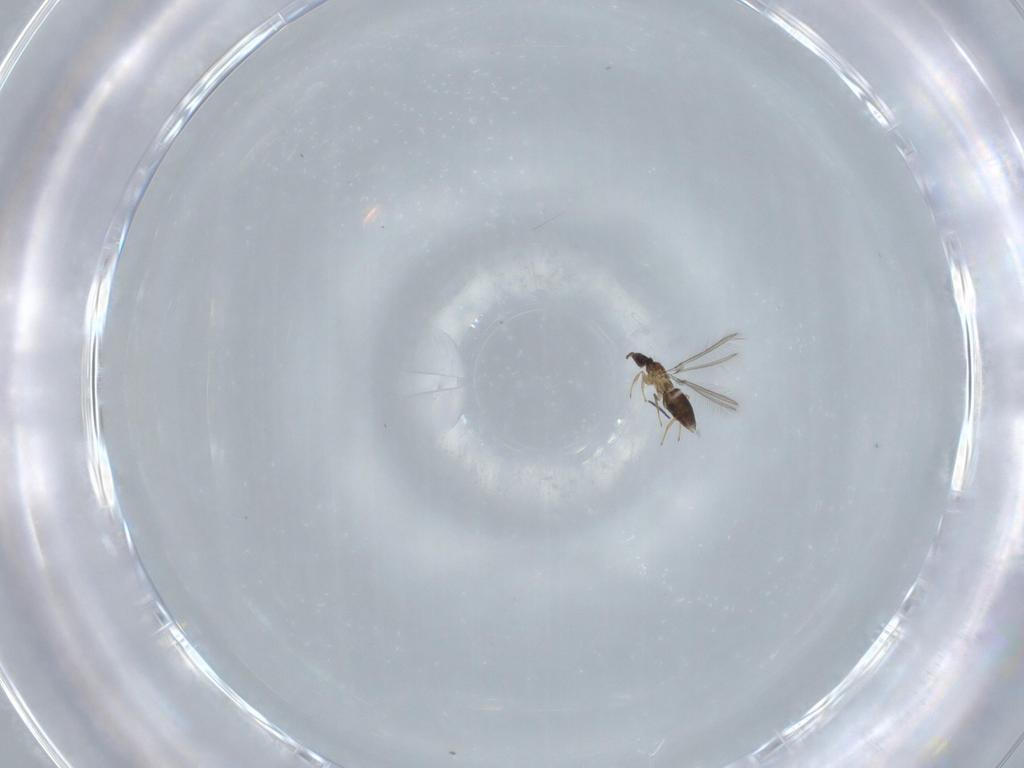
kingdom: Animalia
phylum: Arthropoda
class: Insecta
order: Hymenoptera
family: Mymaridae
